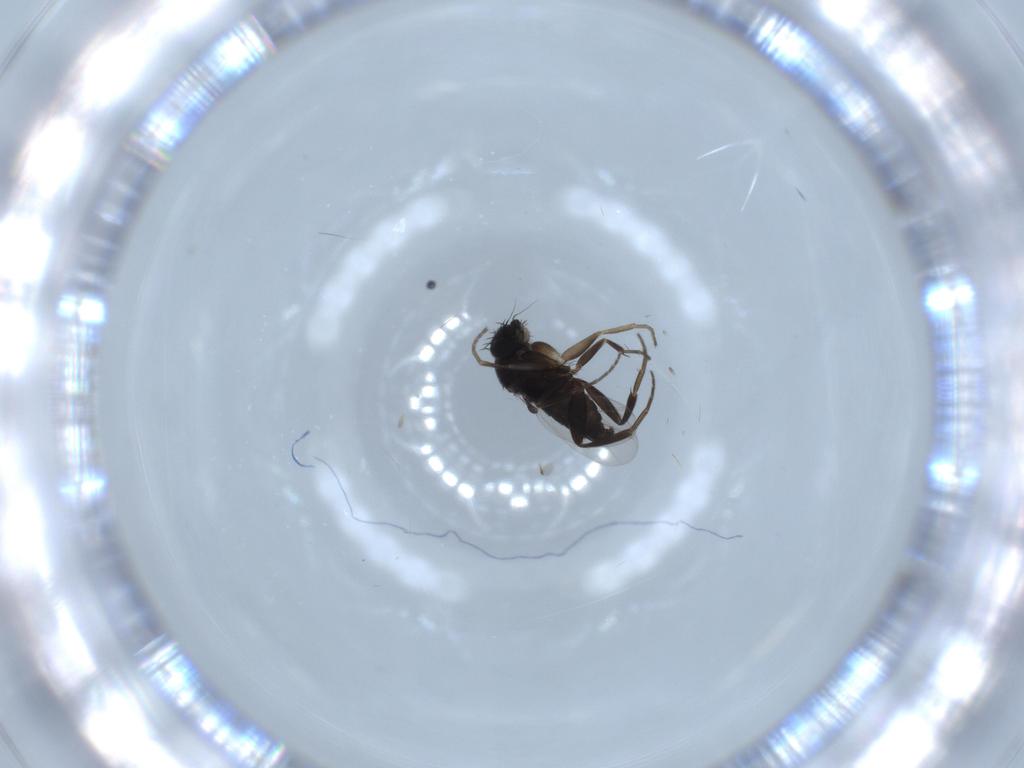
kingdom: Animalia
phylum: Arthropoda
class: Insecta
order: Diptera
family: Phoridae
